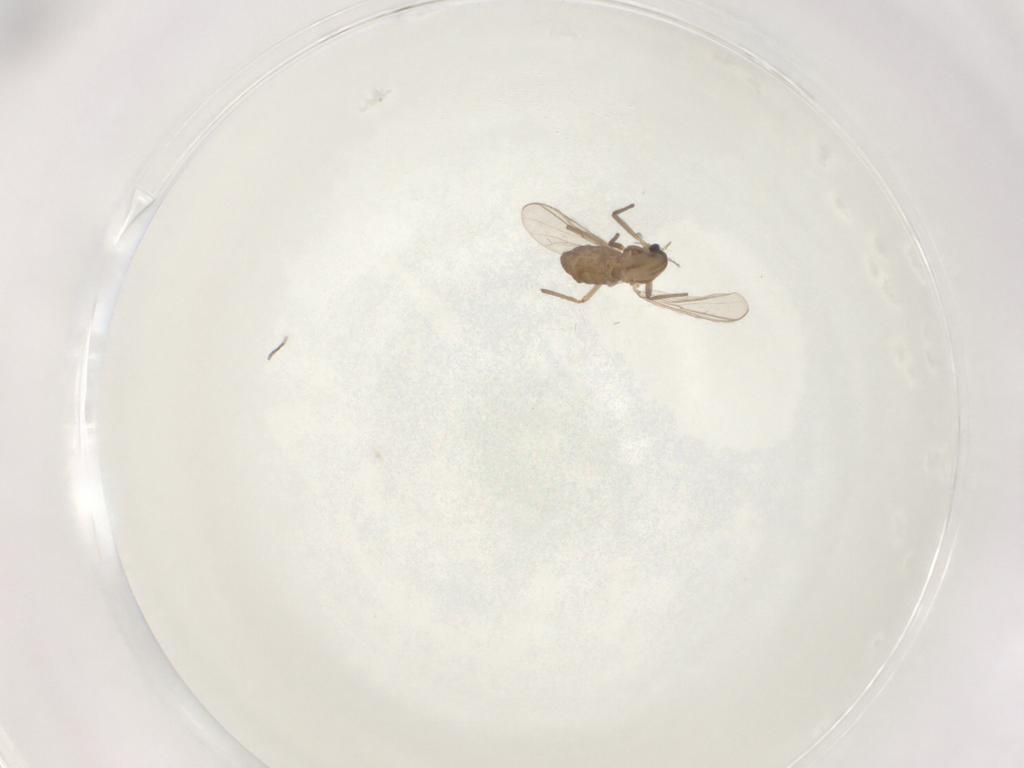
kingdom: Animalia
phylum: Arthropoda
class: Insecta
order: Diptera
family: Chironomidae
